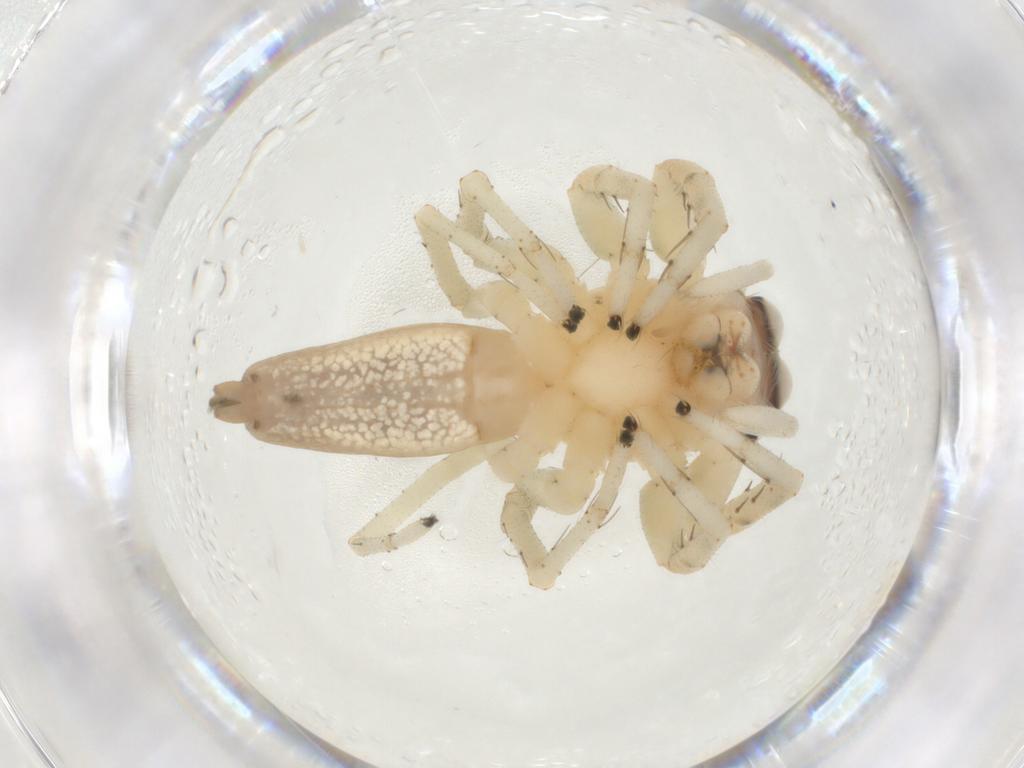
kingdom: Animalia
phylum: Arthropoda
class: Arachnida
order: Araneae
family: Salticidae
